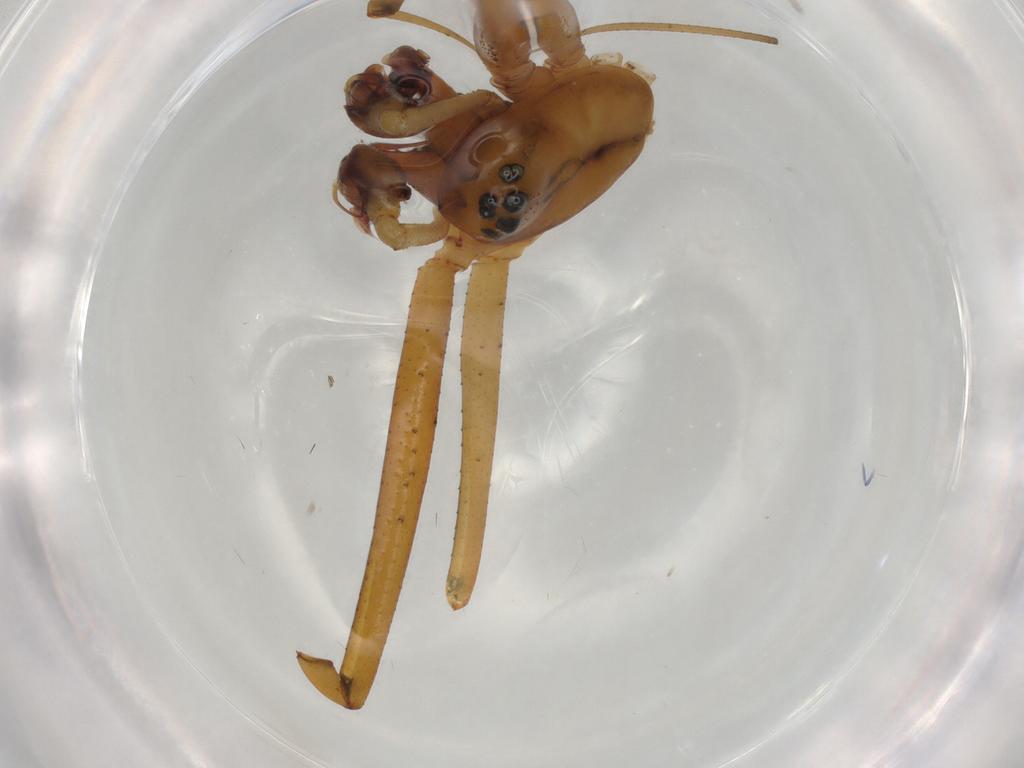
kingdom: Animalia
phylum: Arthropoda
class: Arachnida
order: Araneae
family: Linyphiidae
